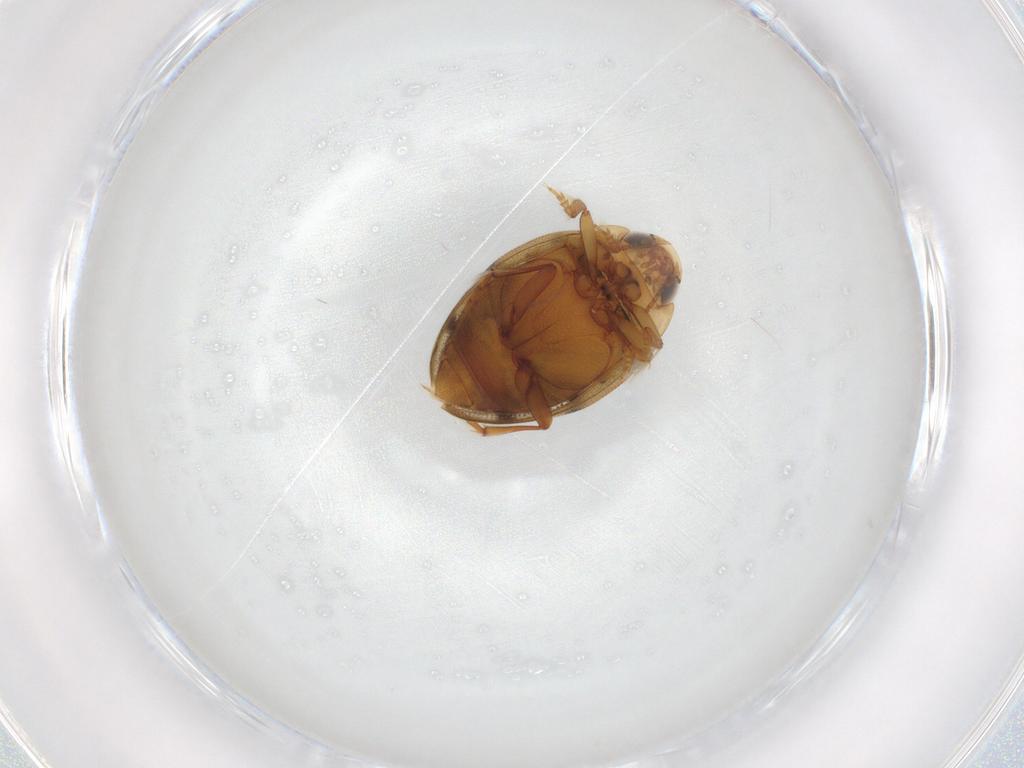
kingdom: Animalia
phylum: Arthropoda
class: Insecta
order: Coleoptera
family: Dytiscidae
